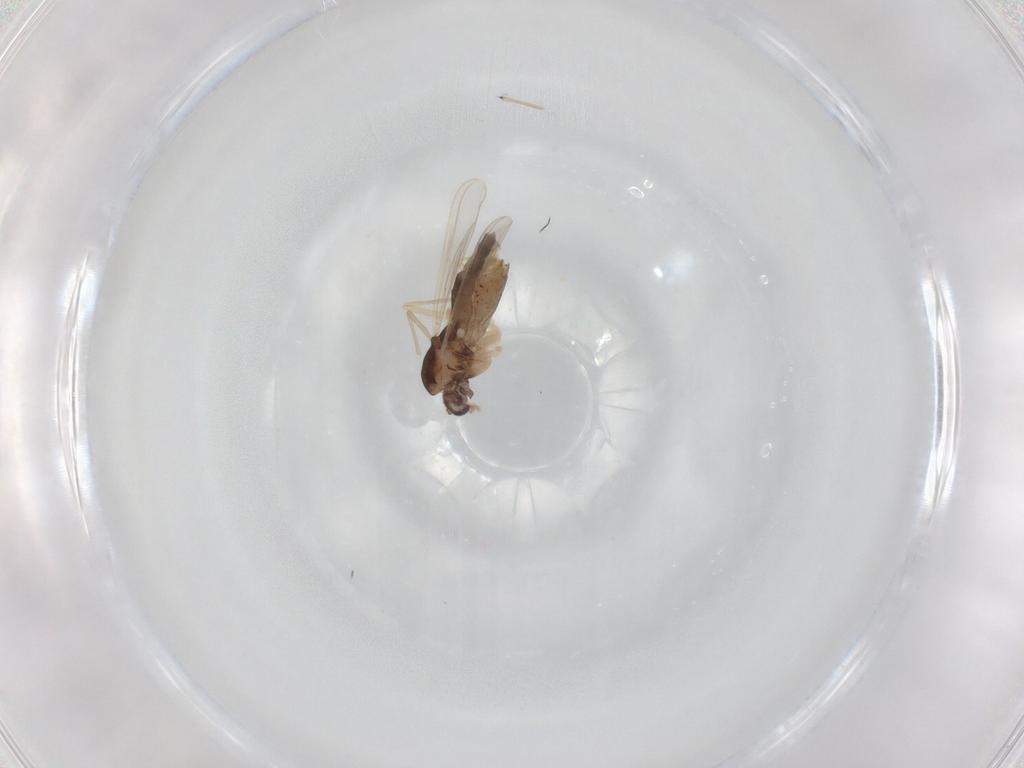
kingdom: Animalia
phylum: Arthropoda
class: Insecta
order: Diptera
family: Chironomidae
